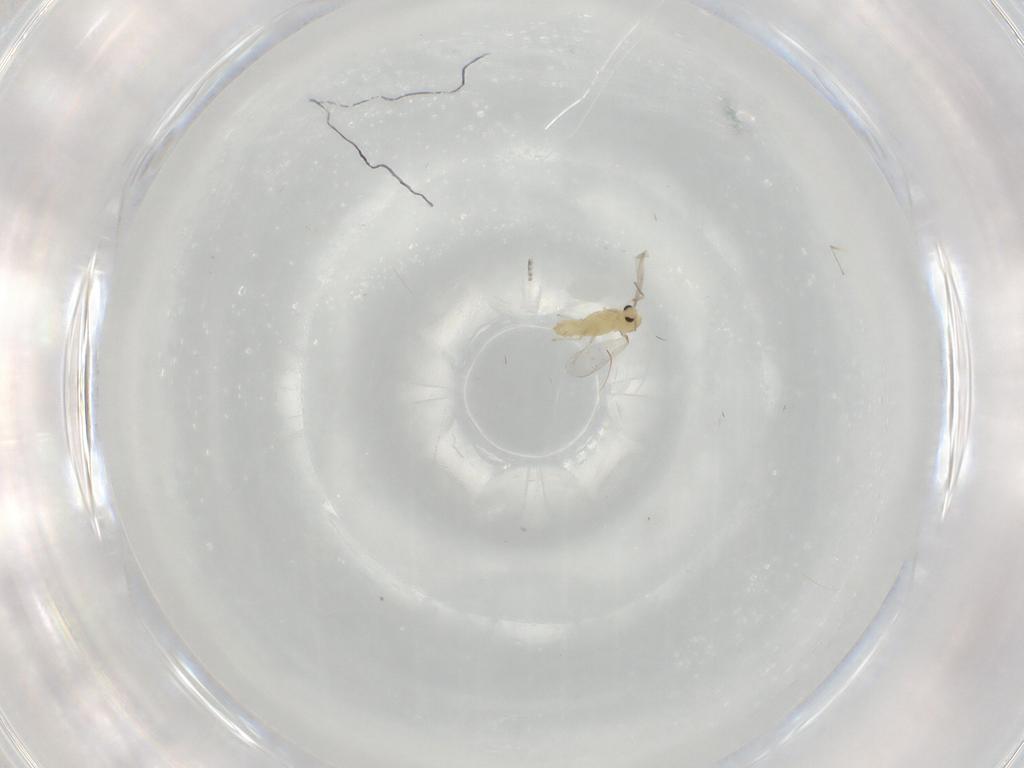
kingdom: Animalia
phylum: Arthropoda
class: Insecta
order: Diptera
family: Chironomidae
